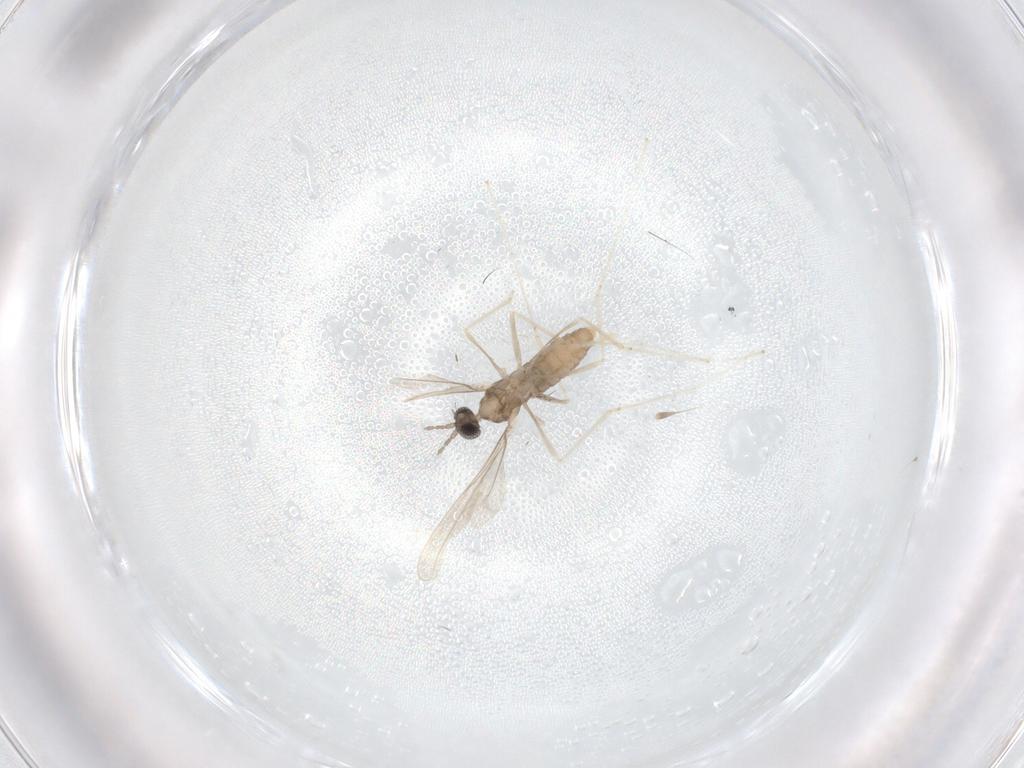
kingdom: Animalia
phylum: Arthropoda
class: Insecta
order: Diptera
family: Cecidomyiidae
